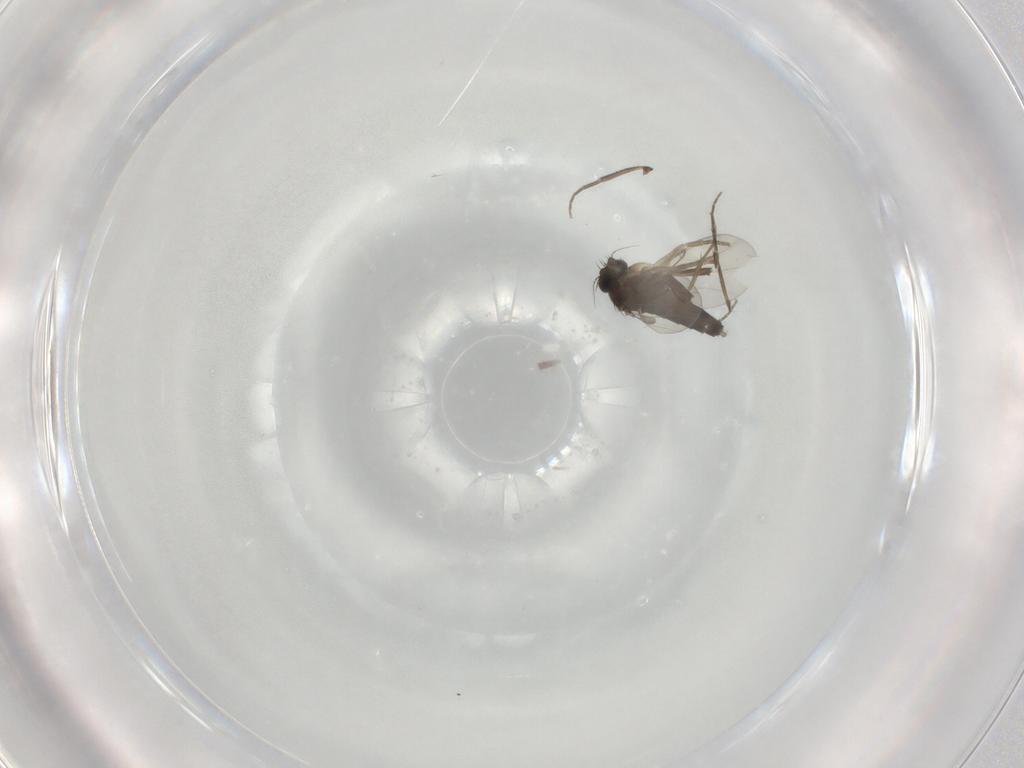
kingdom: Animalia
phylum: Arthropoda
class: Insecta
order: Diptera
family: Phoridae
